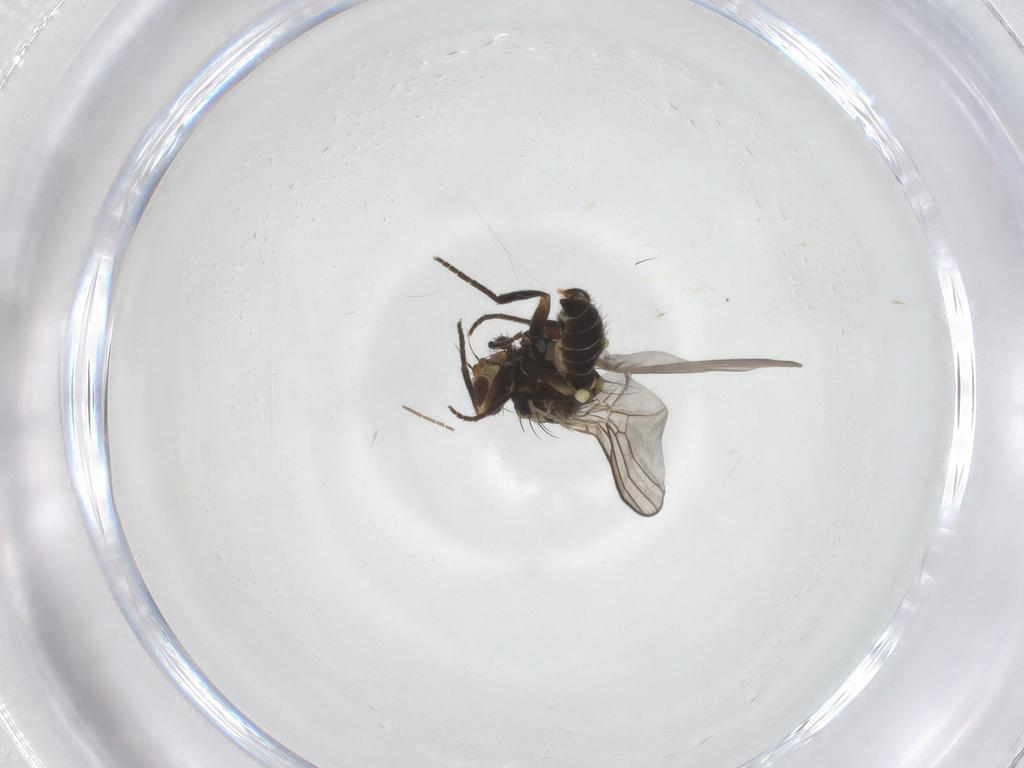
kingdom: Animalia
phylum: Arthropoda
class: Insecta
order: Diptera
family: Agromyzidae
